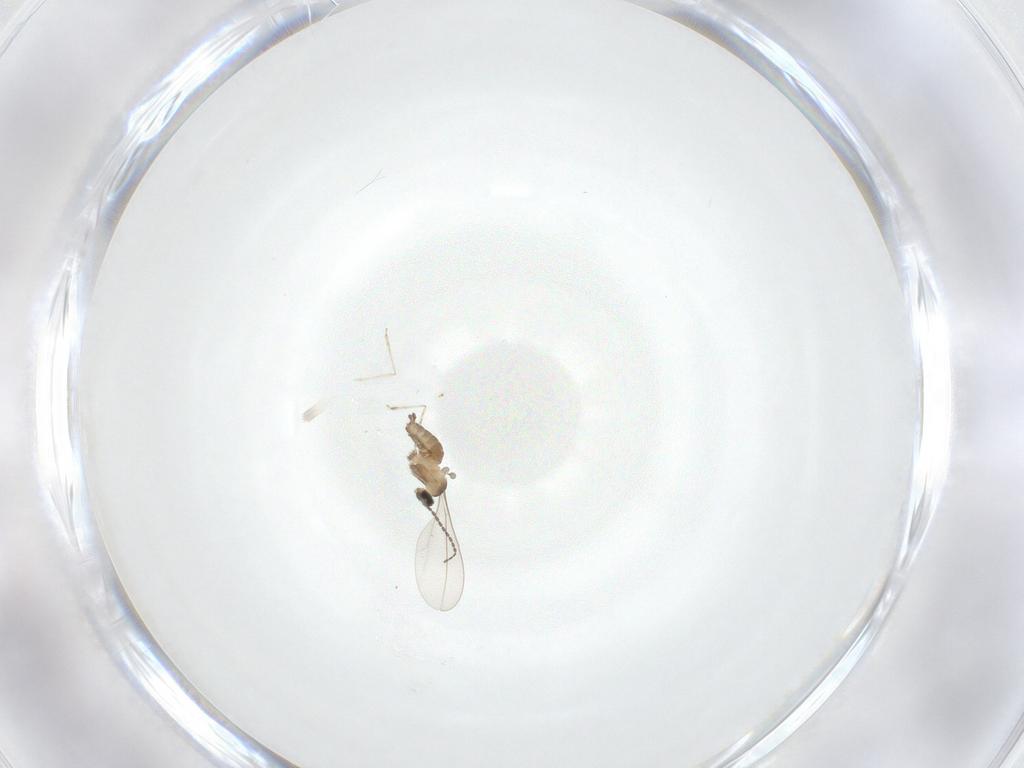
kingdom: Animalia
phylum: Arthropoda
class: Insecta
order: Diptera
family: Cecidomyiidae
